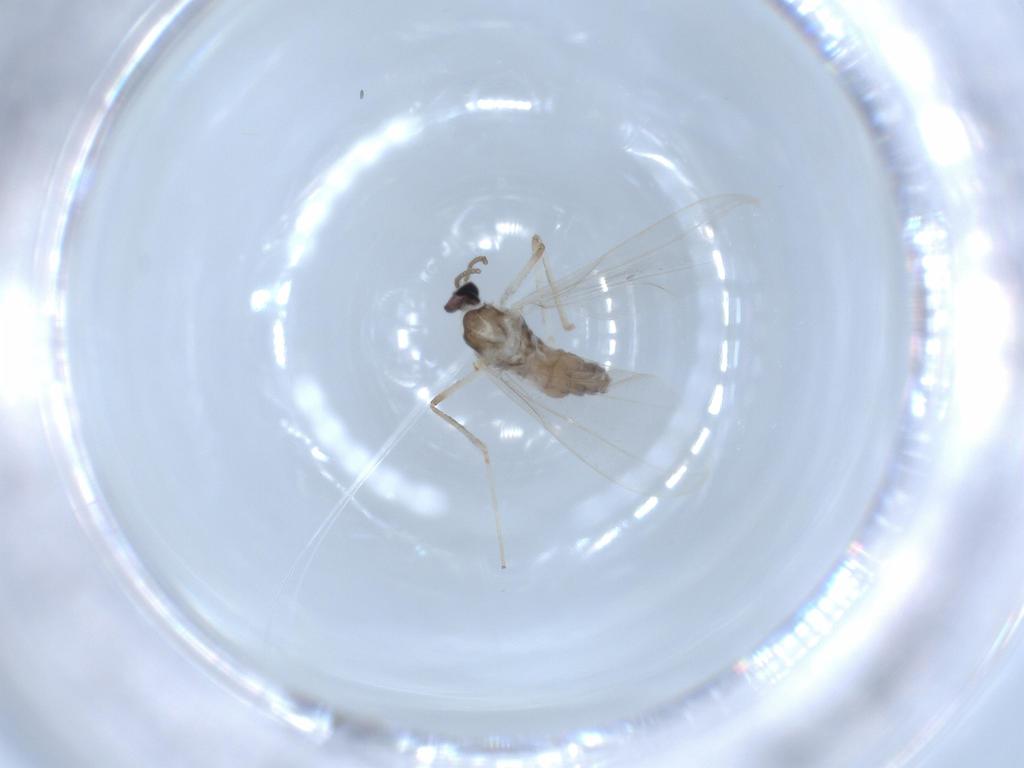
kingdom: Animalia
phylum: Arthropoda
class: Insecta
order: Diptera
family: Cecidomyiidae
